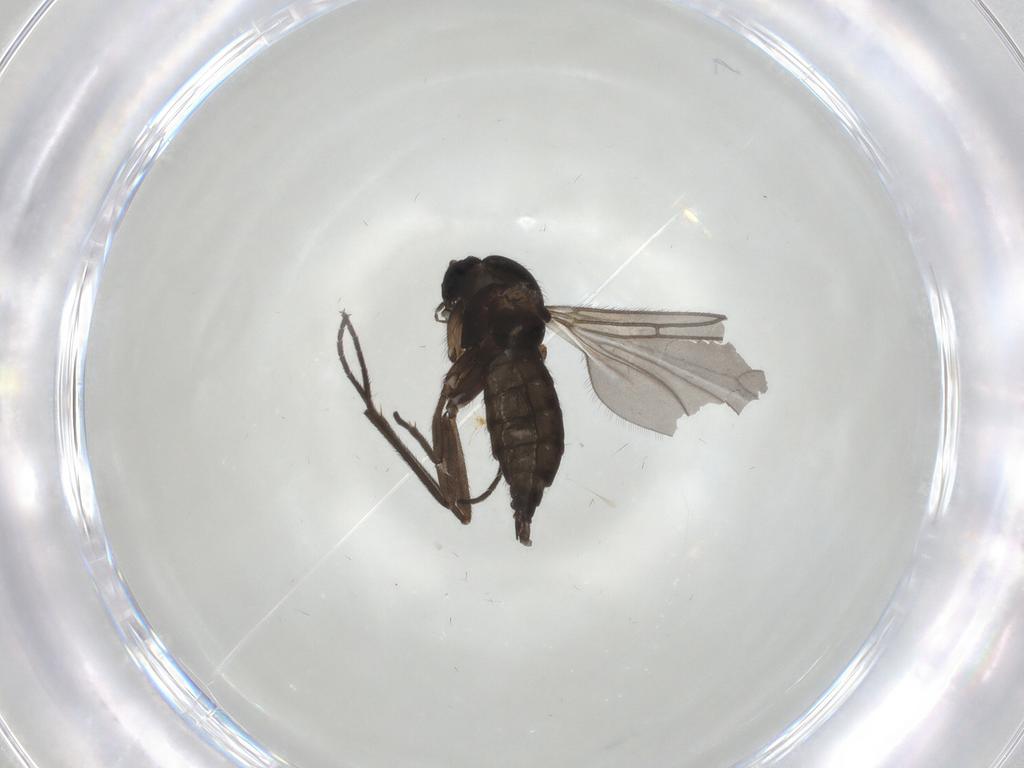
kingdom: Animalia
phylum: Arthropoda
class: Insecta
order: Diptera
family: Sciaridae
